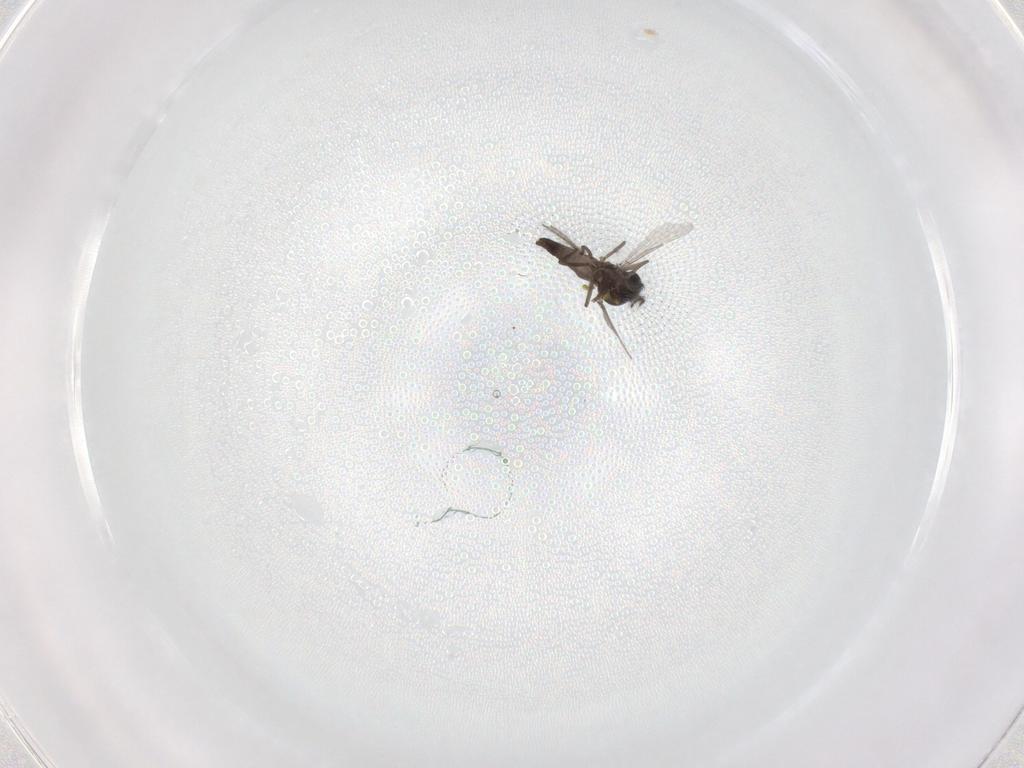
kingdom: Animalia
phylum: Arthropoda
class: Insecta
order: Diptera
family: Ceratopogonidae
